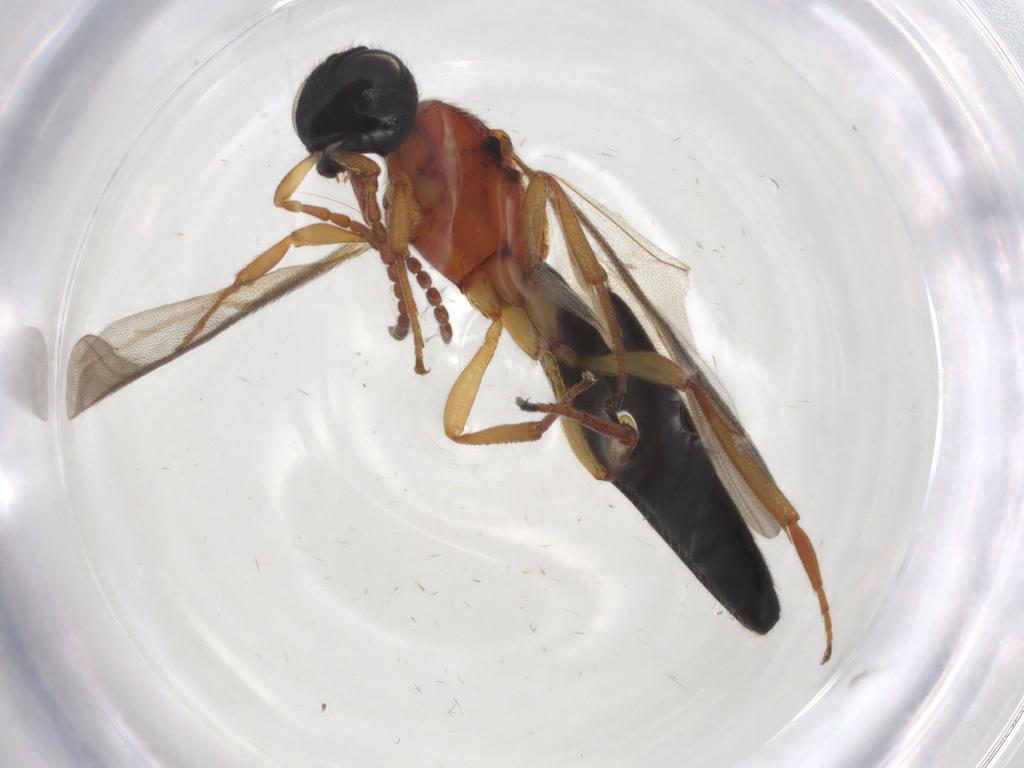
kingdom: Animalia
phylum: Arthropoda
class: Insecta
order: Hymenoptera
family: Scelionidae
